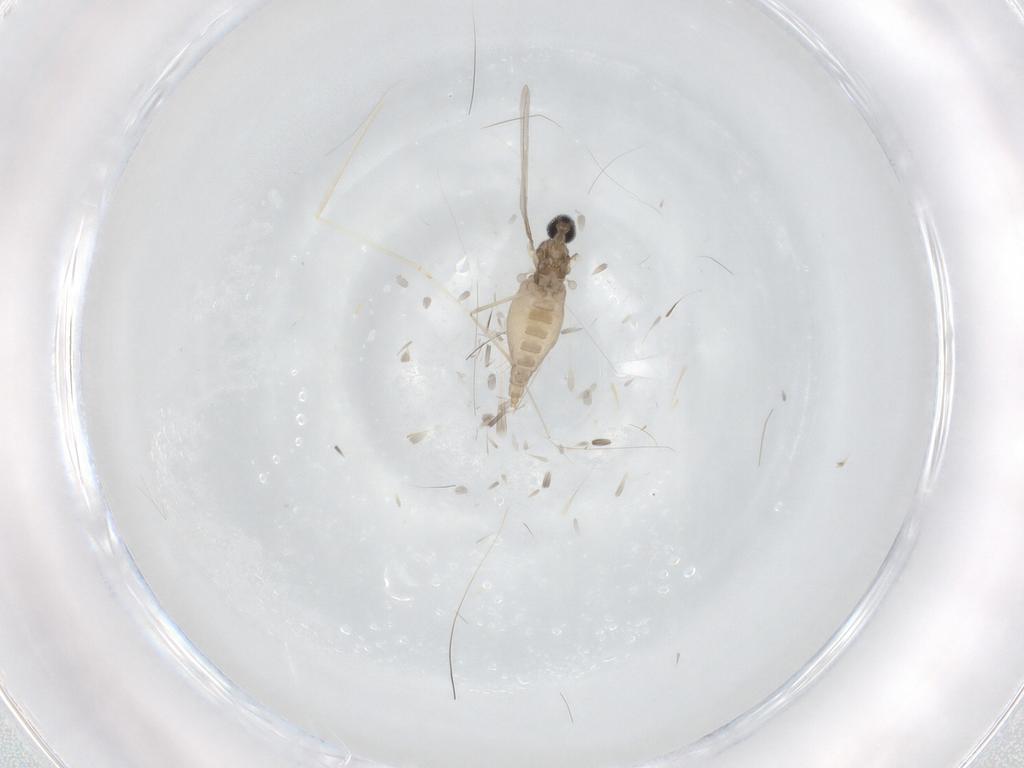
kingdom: Animalia
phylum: Arthropoda
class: Insecta
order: Diptera
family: Cecidomyiidae
